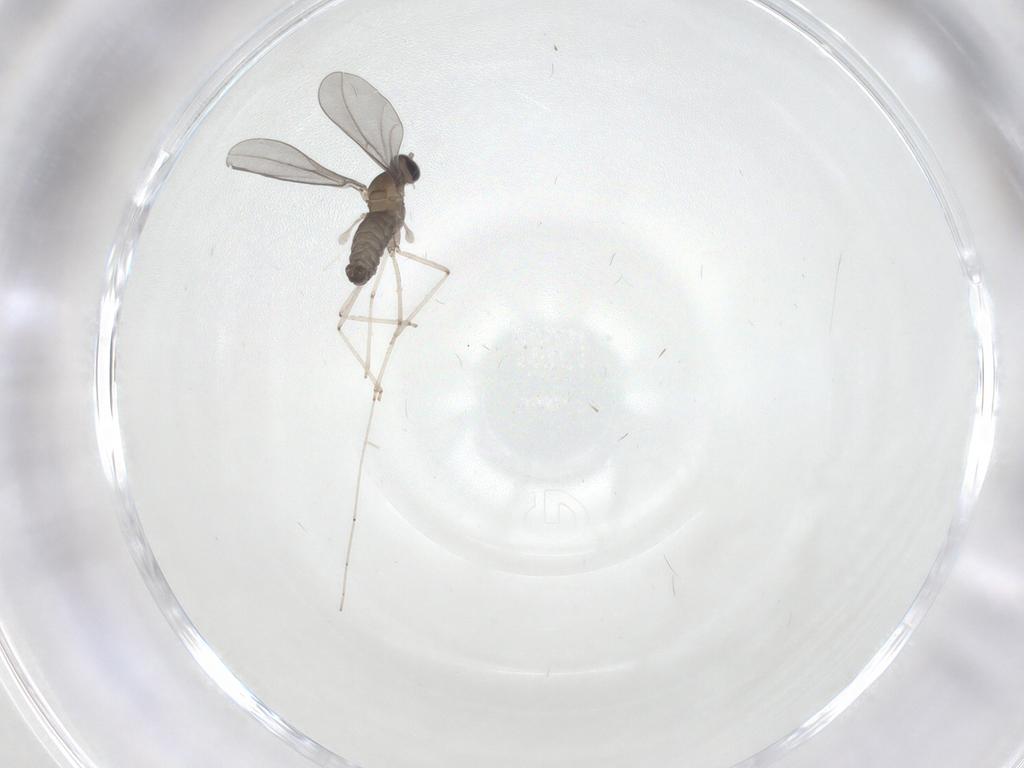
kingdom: Animalia
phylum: Arthropoda
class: Insecta
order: Diptera
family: Cecidomyiidae
